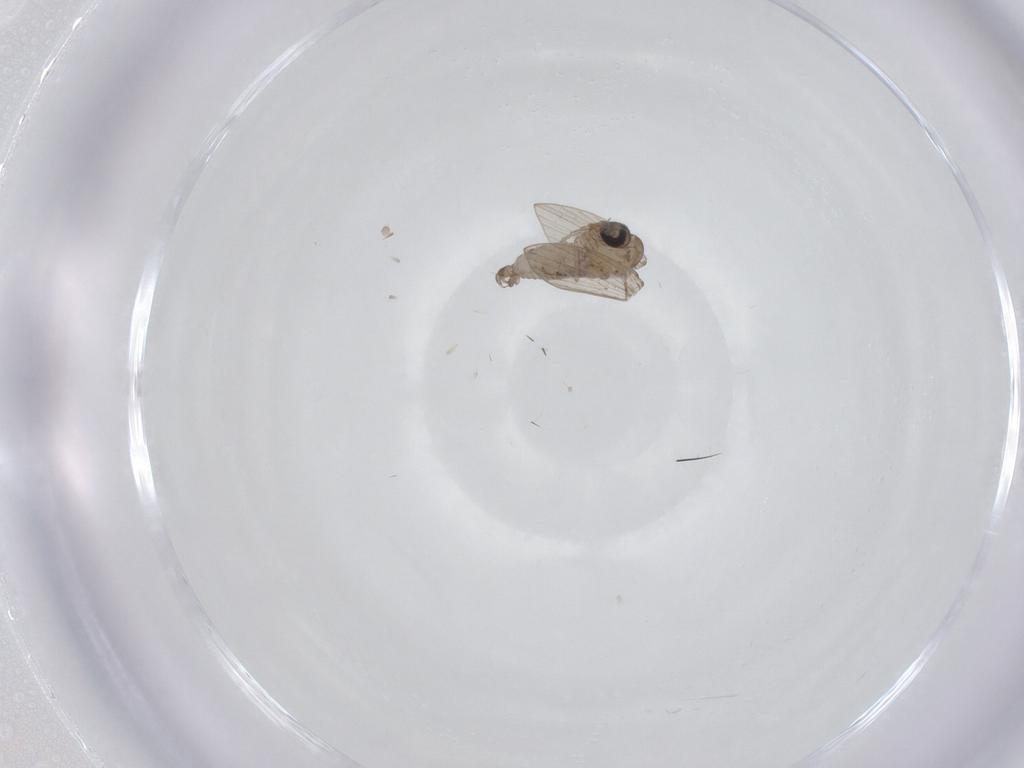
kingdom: Animalia
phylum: Arthropoda
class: Insecta
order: Diptera
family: Psychodidae
